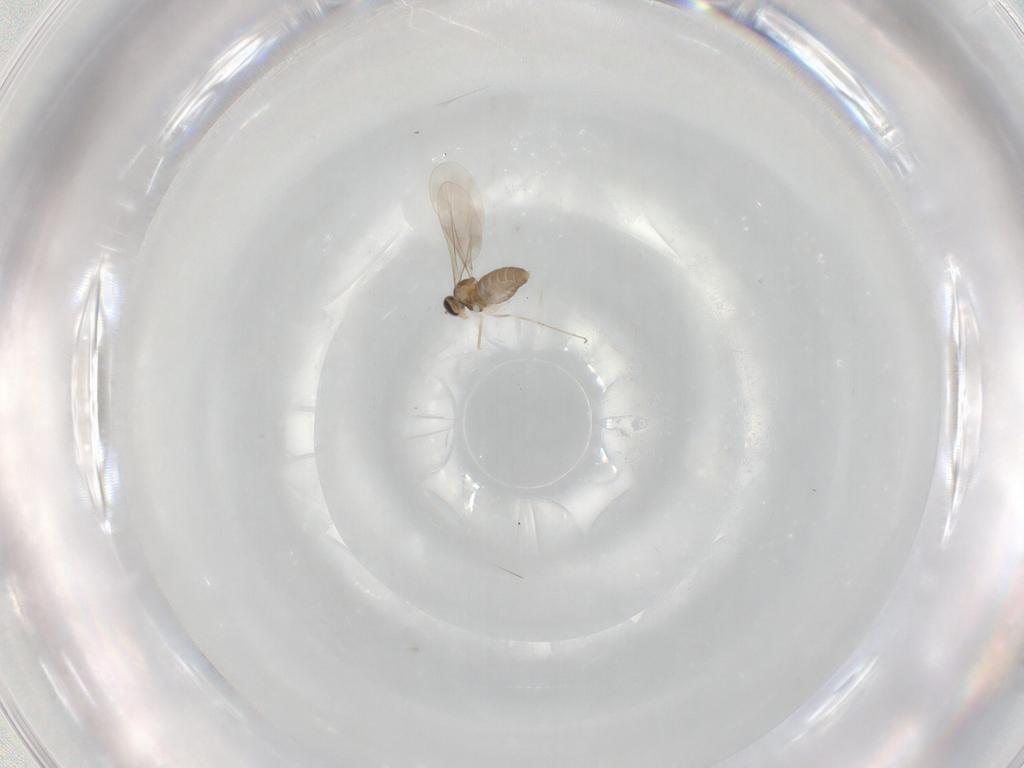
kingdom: Animalia
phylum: Arthropoda
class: Insecta
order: Diptera
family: Cecidomyiidae
